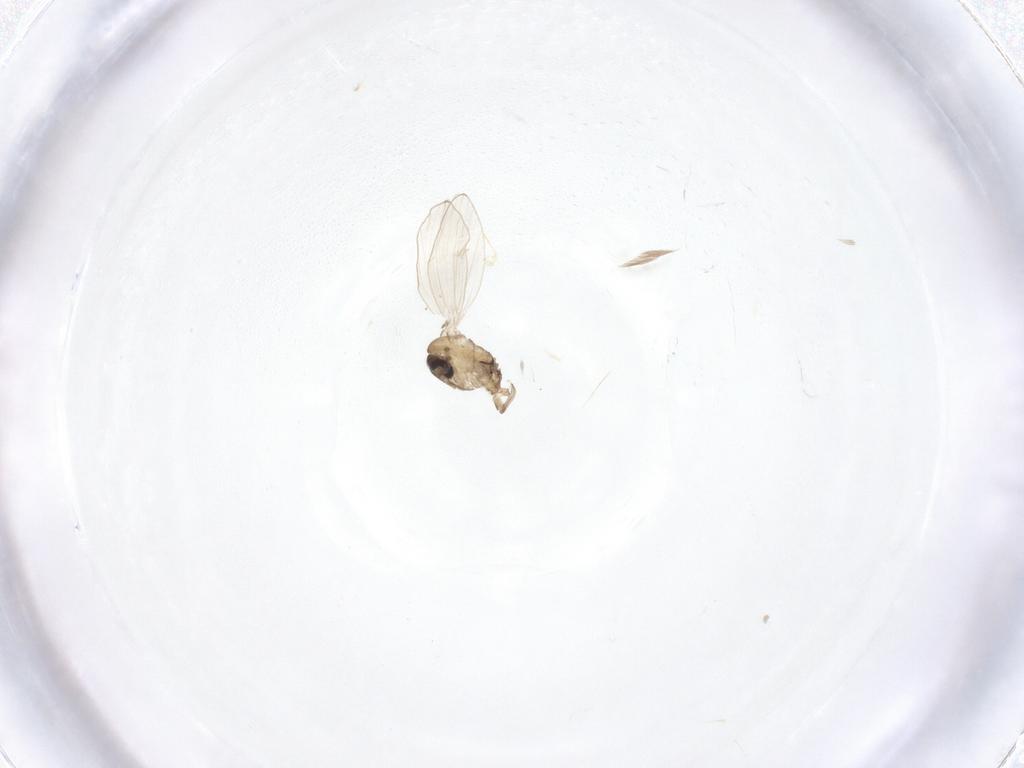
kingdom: Animalia
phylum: Arthropoda
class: Insecta
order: Diptera
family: Psychodidae
